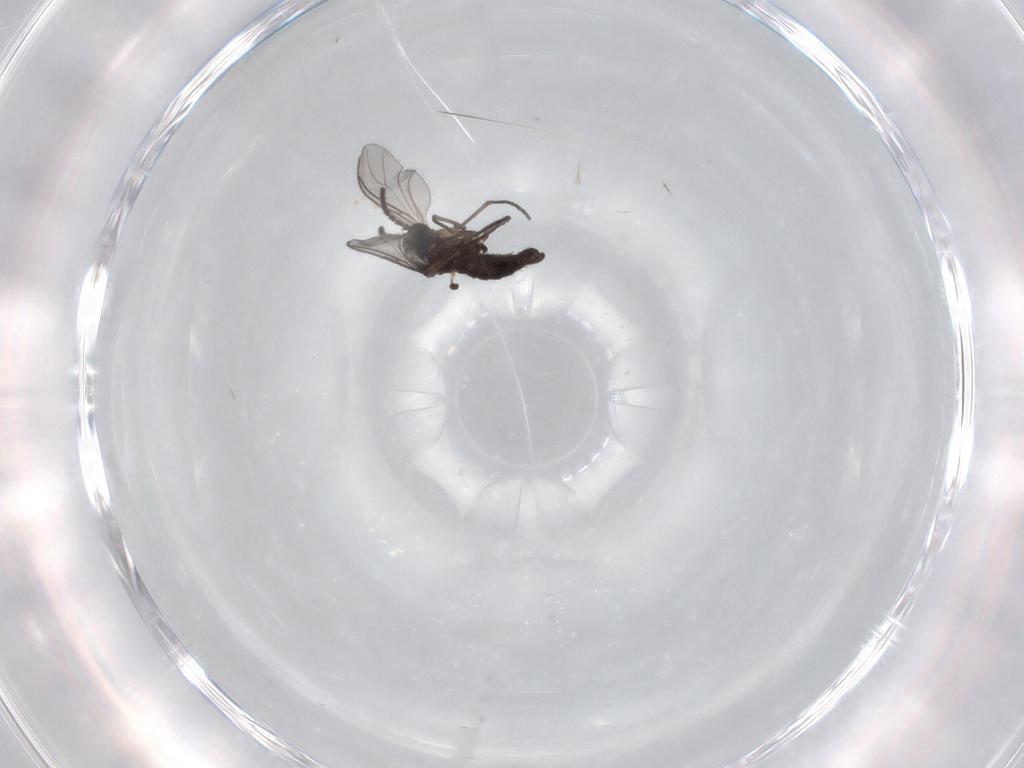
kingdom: Animalia
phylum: Arthropoda
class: Insecta
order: Diptera
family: Sciaridae
